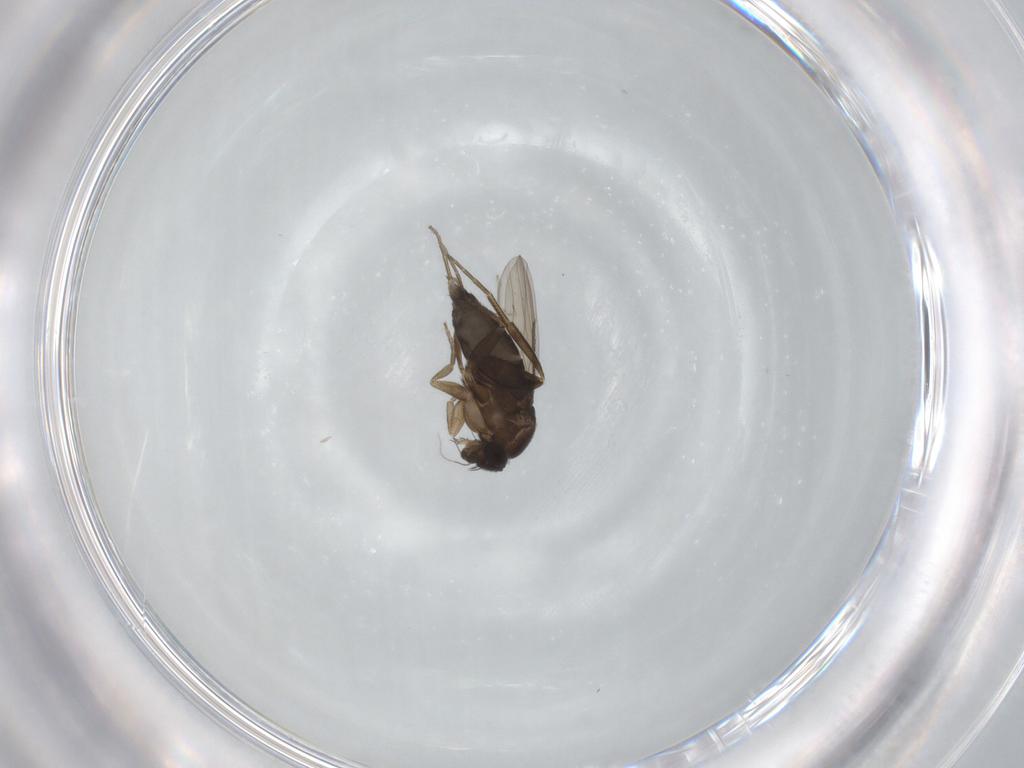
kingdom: Animalia
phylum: Arthropoda
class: Insecta
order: Diptera
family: Phoridae
